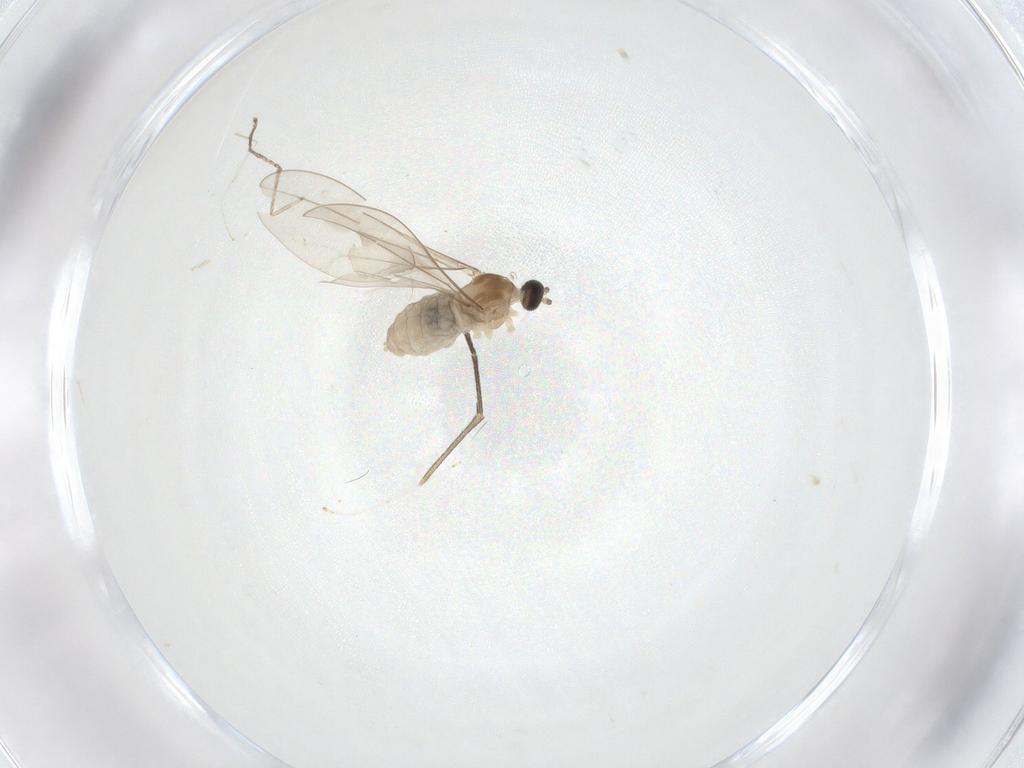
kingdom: Animalia
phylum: Arthropoda
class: Insecta
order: Diptera
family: Cecidomyiidae
